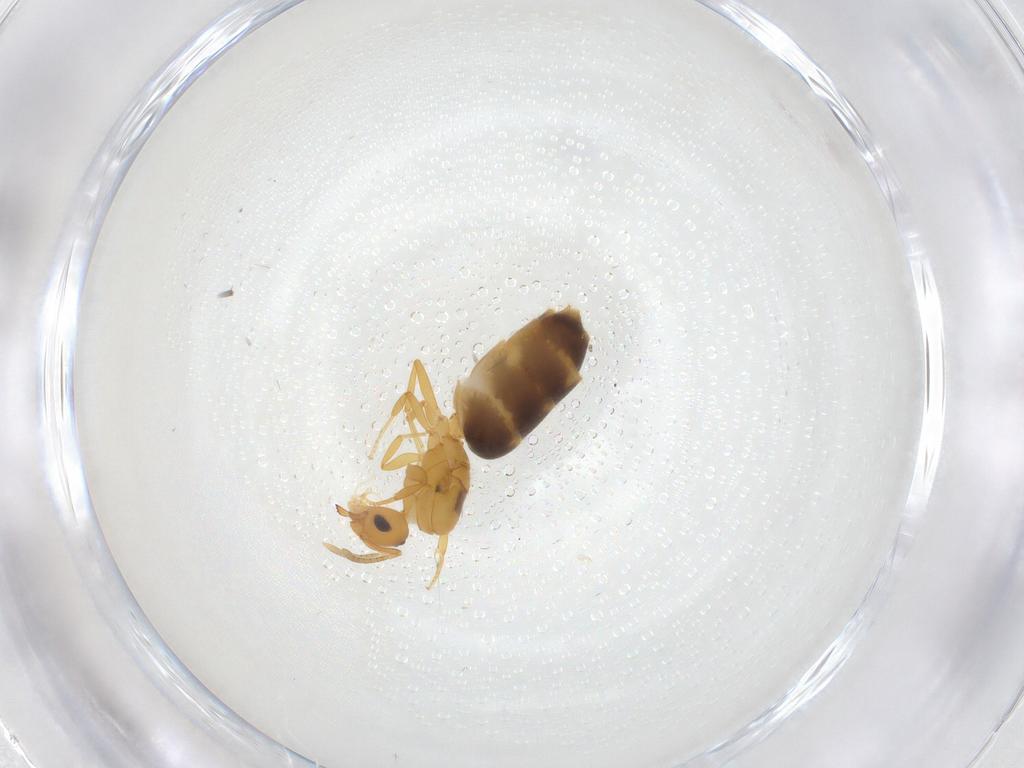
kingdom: Animalia
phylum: Arthropoda
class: Insecta
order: Hymenoptera
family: Formicidae
